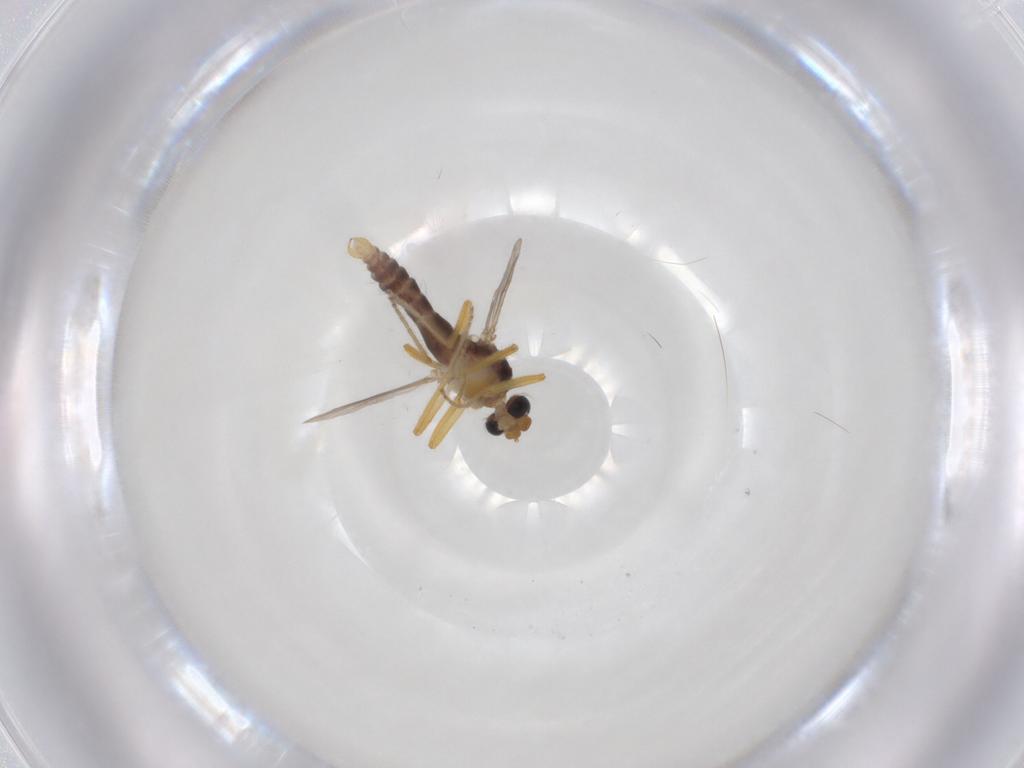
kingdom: Animalia
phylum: Arthropoda
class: Insecta
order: Diptera
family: Ceratopogonidae
